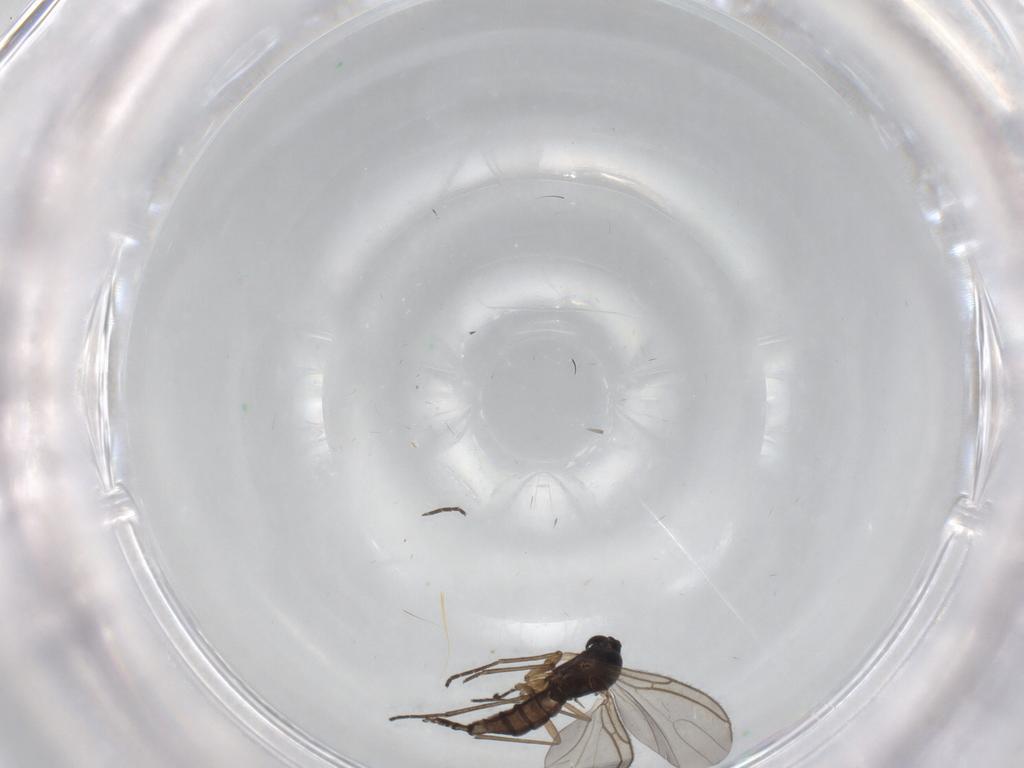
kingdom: Animalia
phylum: Arthropoda
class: Insecta
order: Diptera
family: Sciaridae
